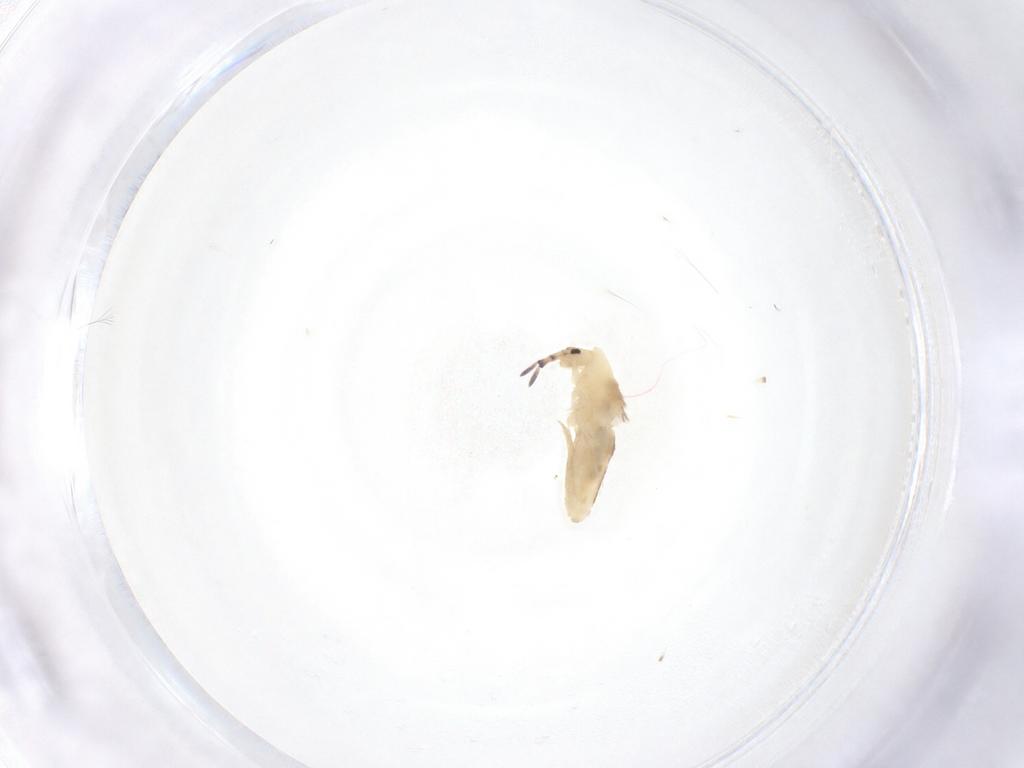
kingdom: Animalia
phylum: Arthropoda
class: Collembola
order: Entomobryomorpha
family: Entomobryidae
